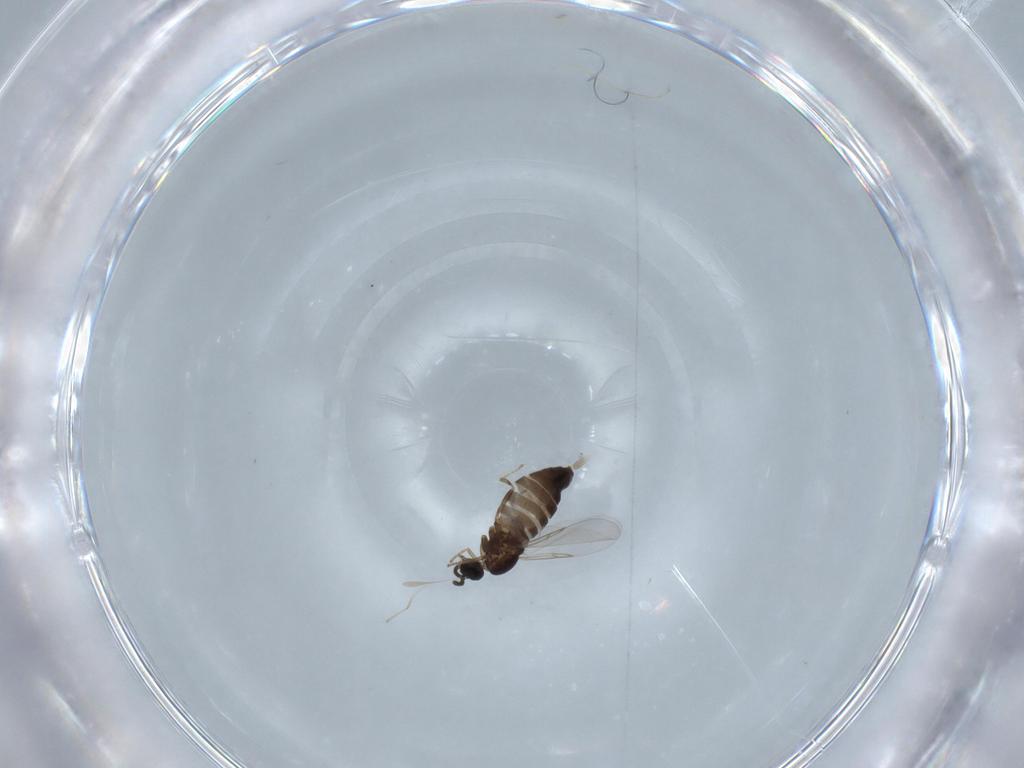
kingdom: Animalia
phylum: Arthropoda
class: Insecta
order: Diptera
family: Scatopsidae
